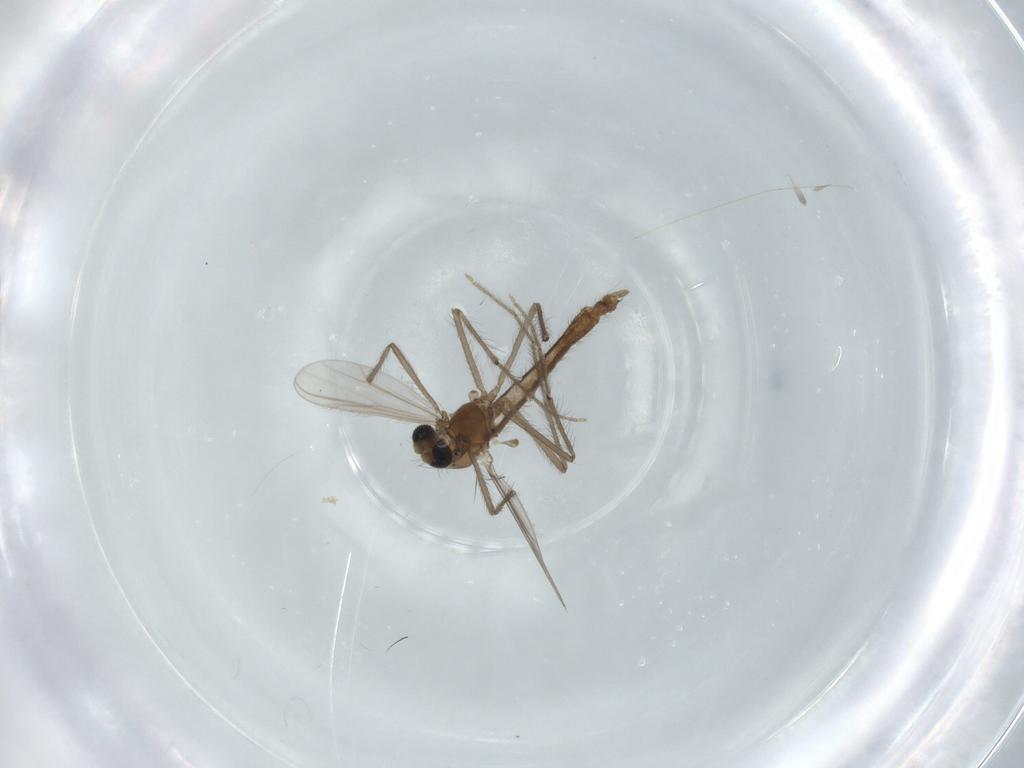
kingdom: Animalia
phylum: Arthropoda
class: Insecta
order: Diptera
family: Chironomidae
